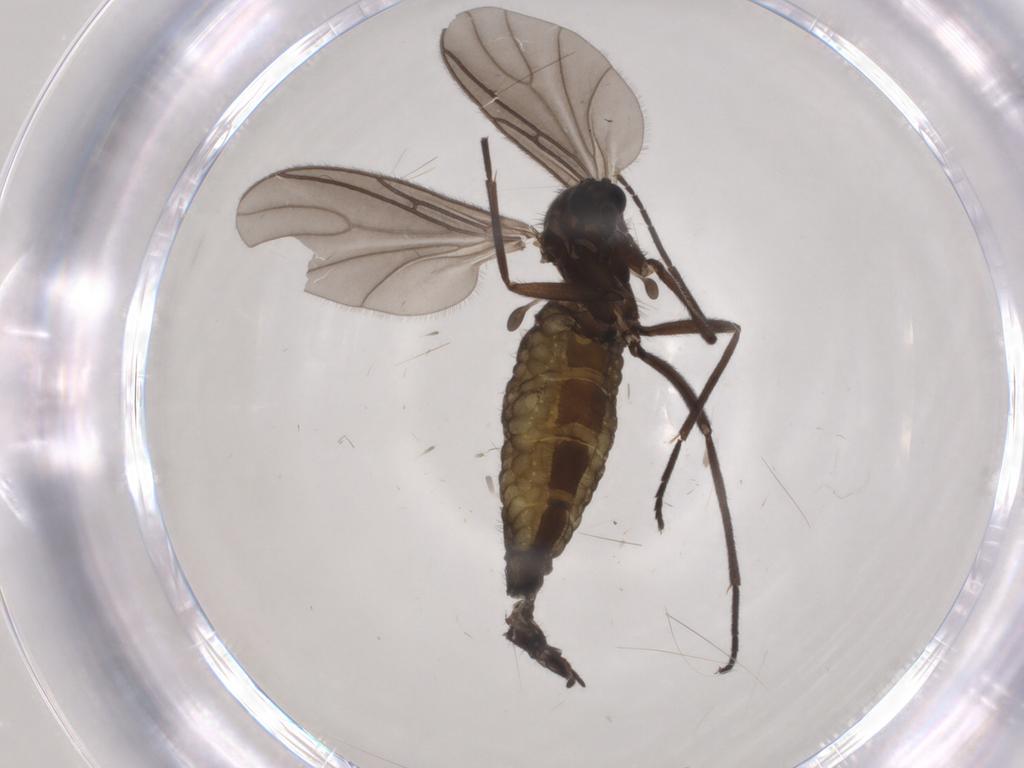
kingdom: Animalia
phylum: Arthropoda
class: Insecta
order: Diptera
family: Sciaridae
